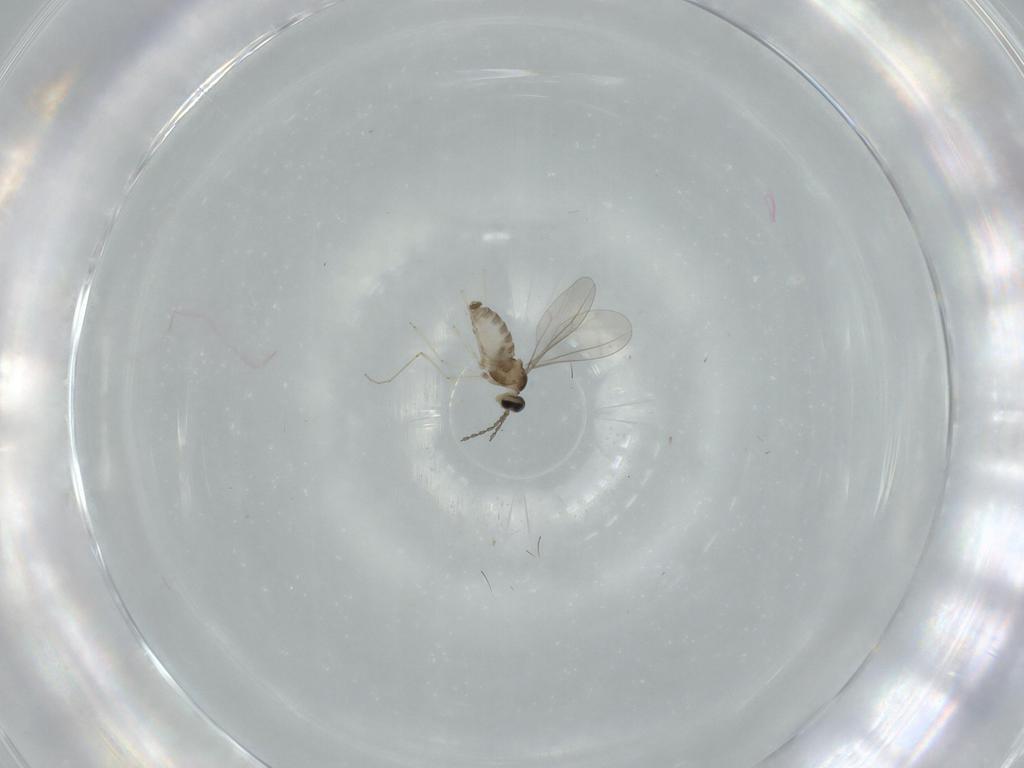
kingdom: Animalia
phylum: Arthropoda
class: Insecta
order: Diptera
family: Cecidomyiidae
